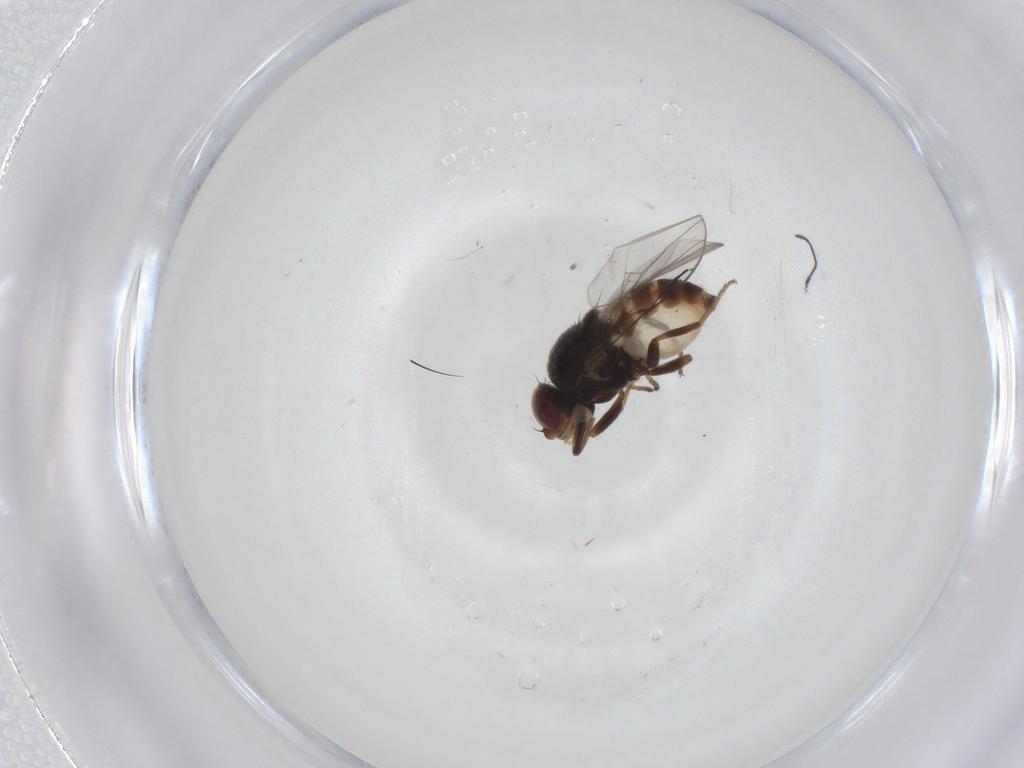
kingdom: Animalia
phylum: Arthropoda
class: Insecta
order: Diptera
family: Chloropidae
